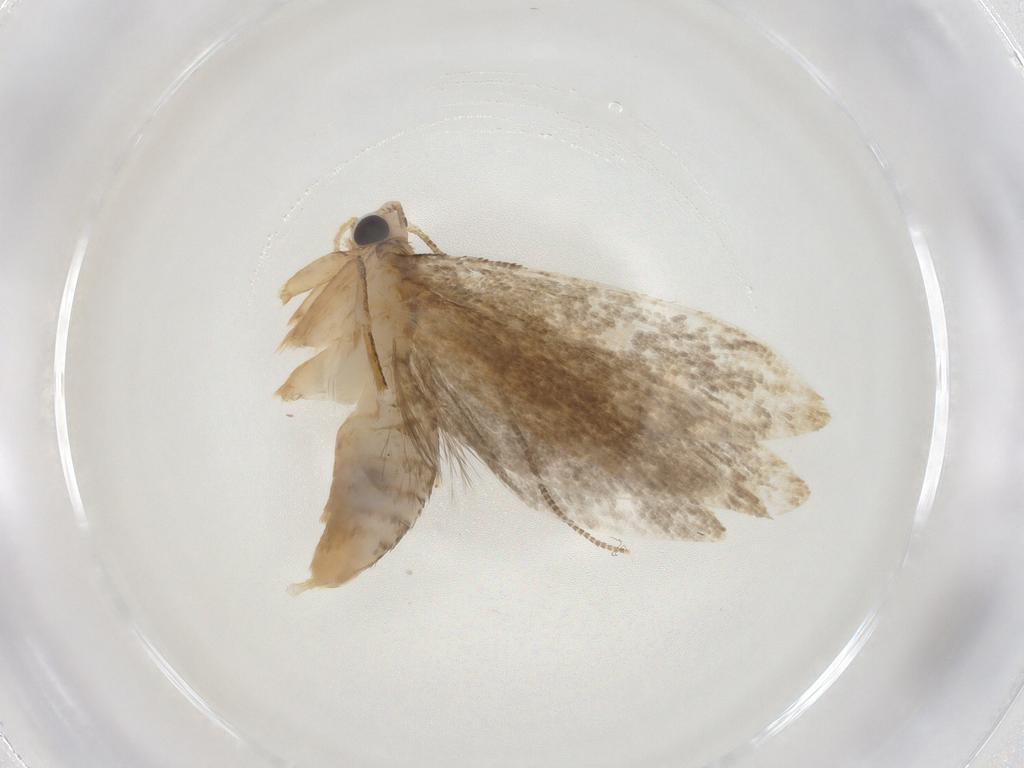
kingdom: Animalia
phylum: Arthropoda
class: Insecta
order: Lepidoptera
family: Tineidae
